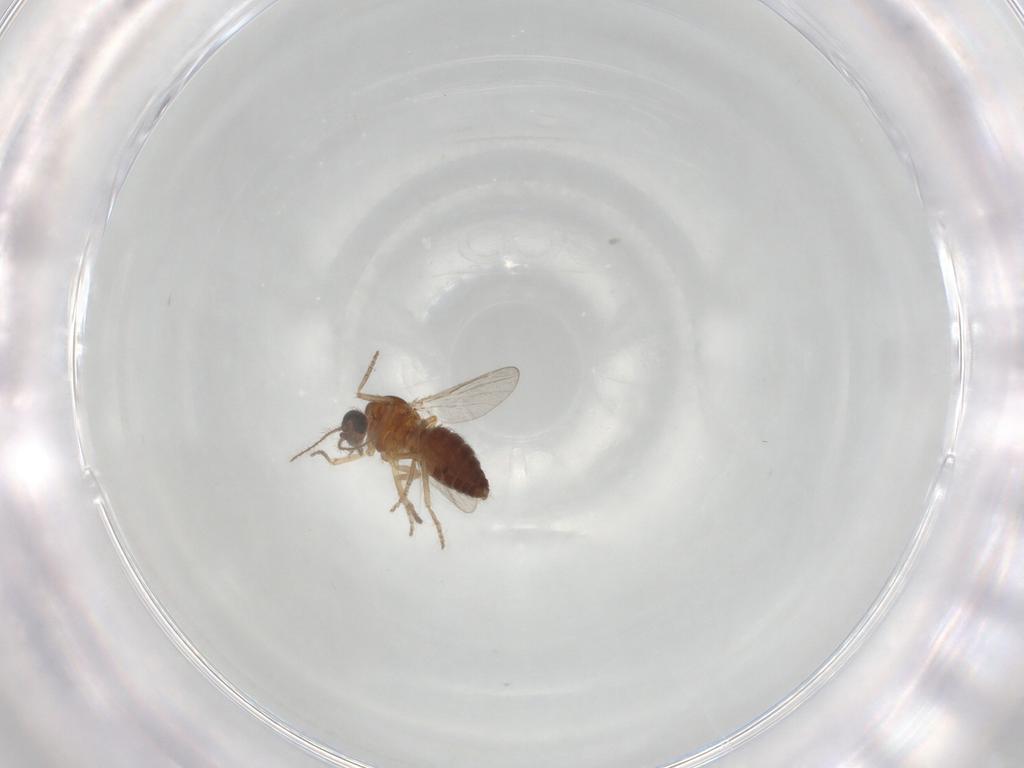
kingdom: Animalia
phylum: Arthropoda
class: Insecta
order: Diptera
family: Ceratopogonidae
